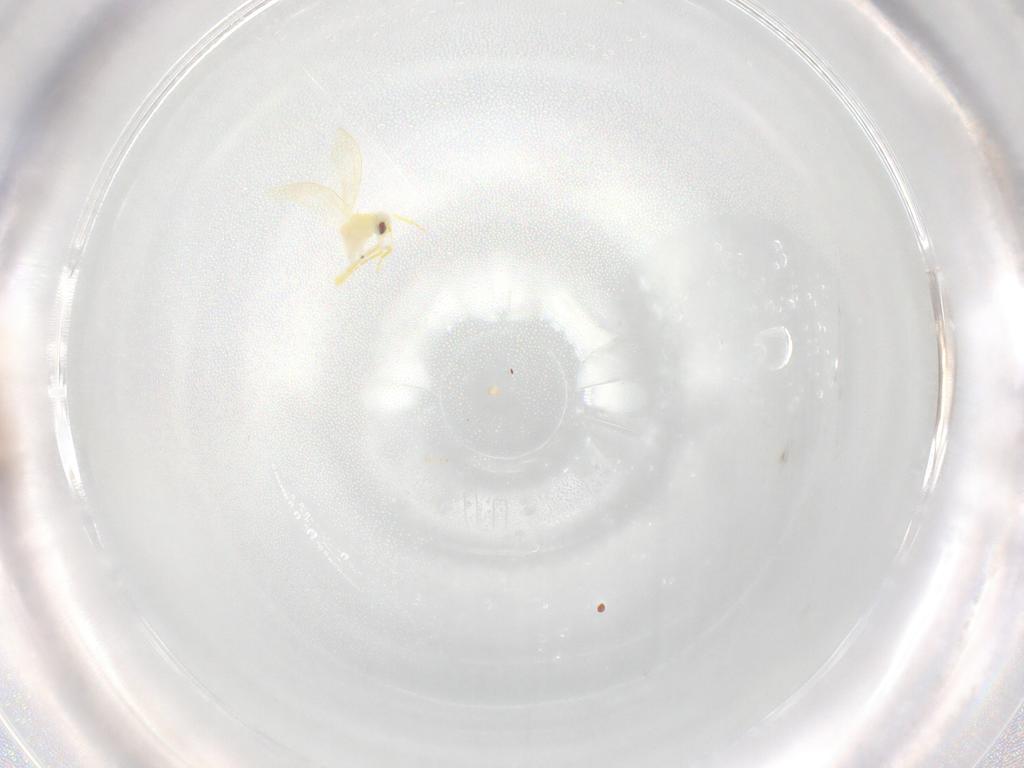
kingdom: Animalia
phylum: Arthropoda
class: Insecta
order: Hemiptera
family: Aleyrodidae
